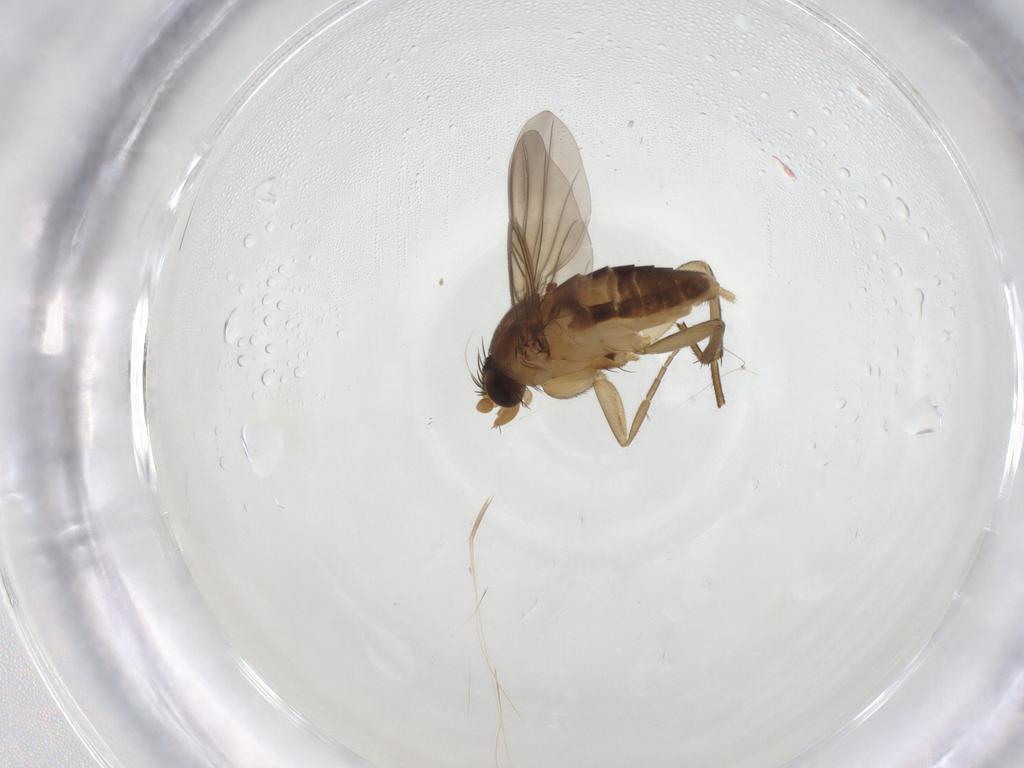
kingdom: Animalia
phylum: Arthropoda
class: Insecta
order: Diptera
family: Phoridae
